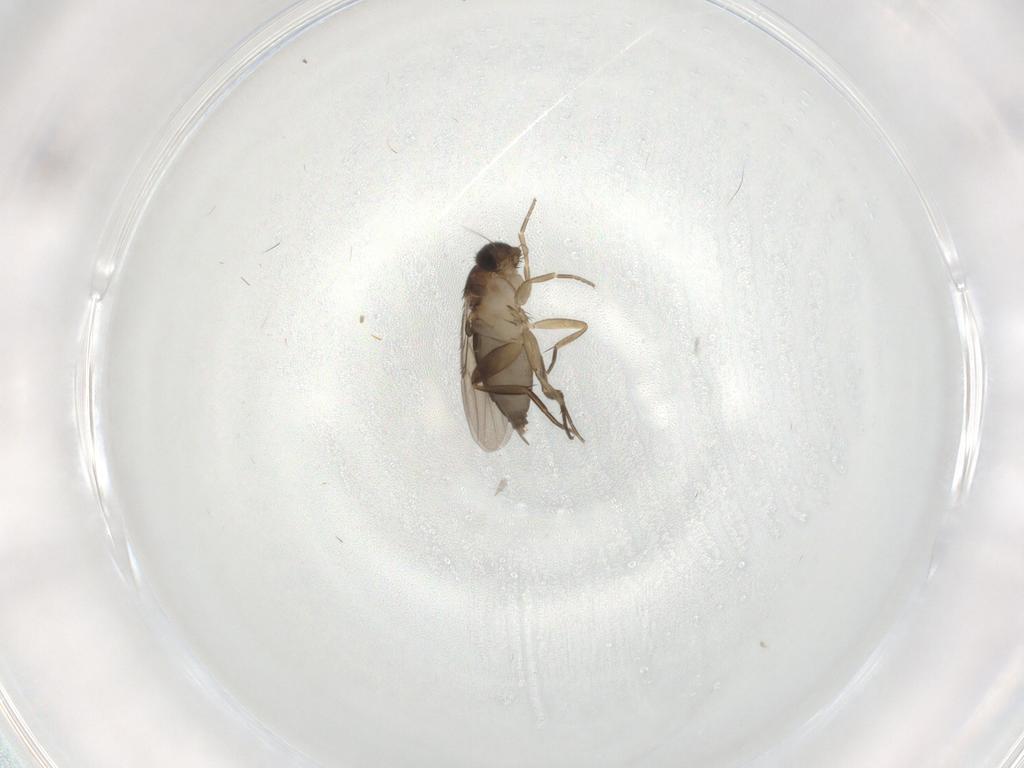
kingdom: Animalia
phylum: Arthropoda
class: Insecta
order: Diptera
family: Phoridae
